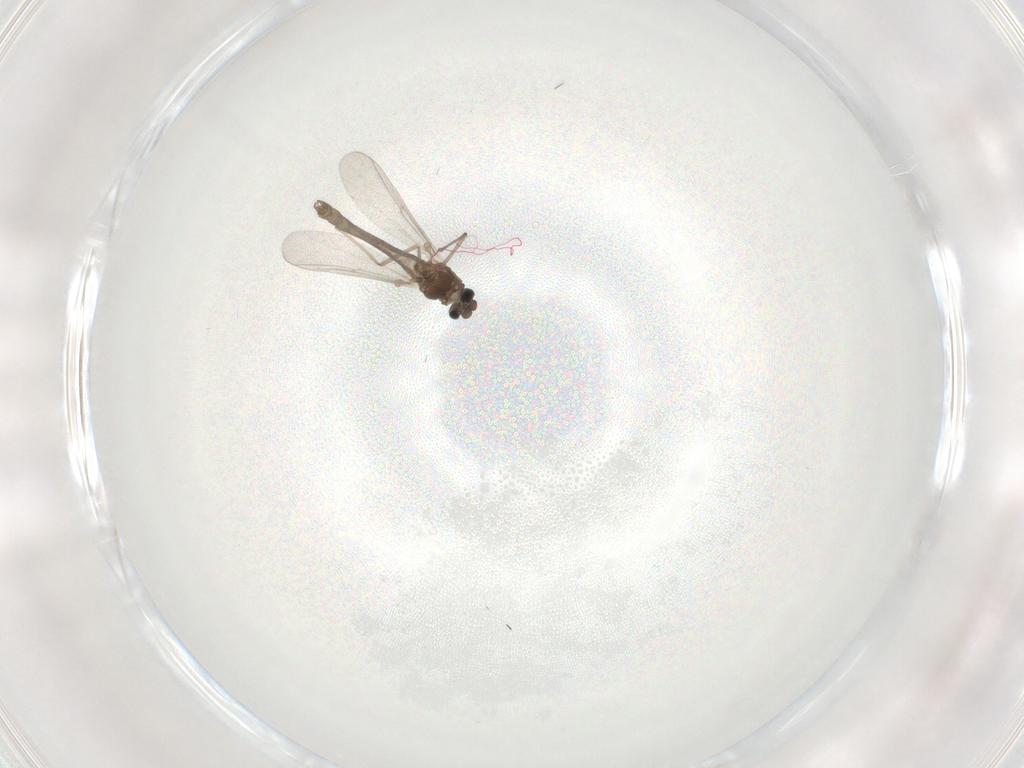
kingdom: Animalia
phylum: Arthropoda
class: Insecta
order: Diptera
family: Chironomidae
